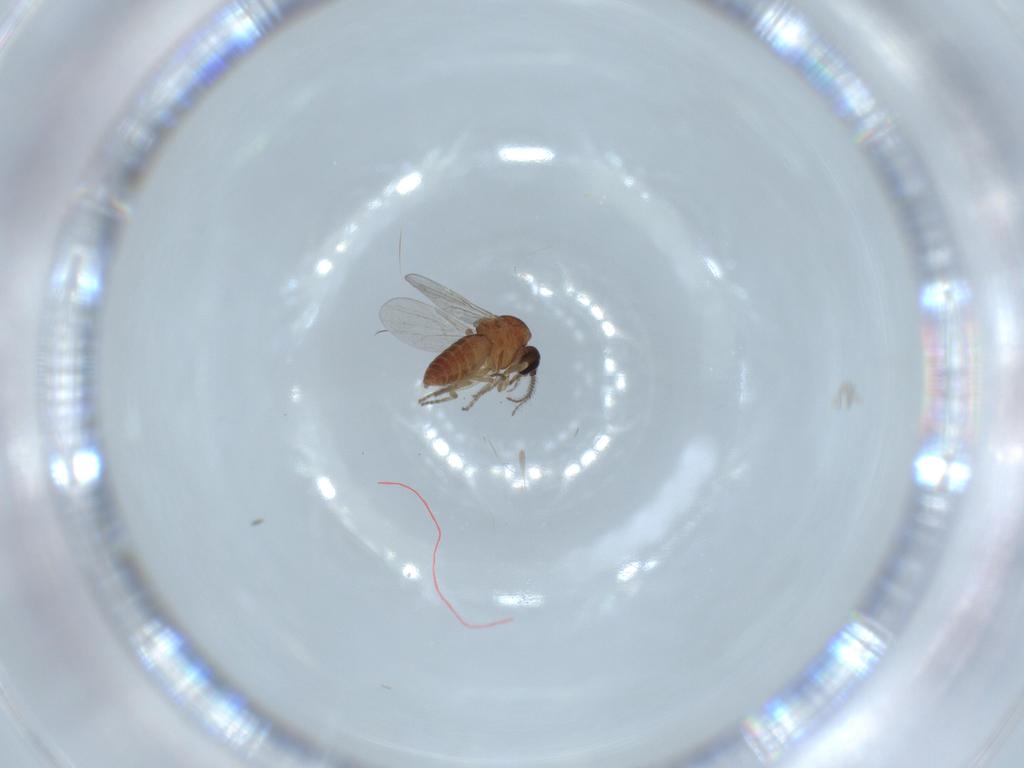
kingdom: Animalia
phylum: Arthropoda
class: Insecta
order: Diptera
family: Ceratopogonidae
